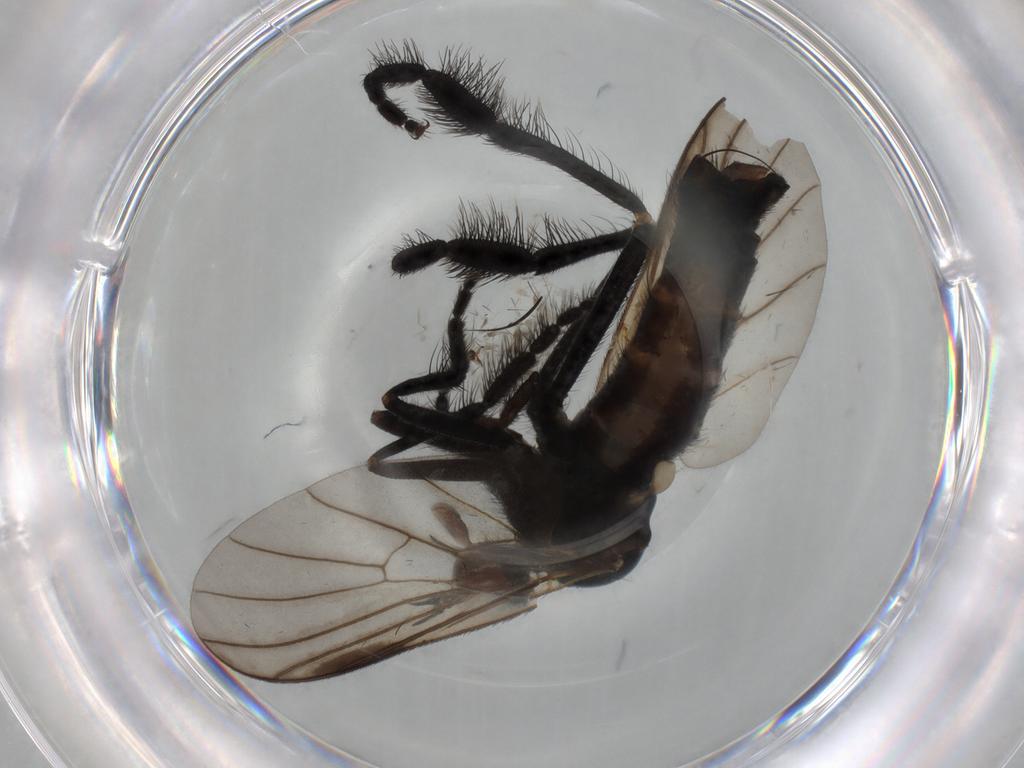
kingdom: Animalia
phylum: Arthropoda
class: Insecta
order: Diptera
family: Empididae
